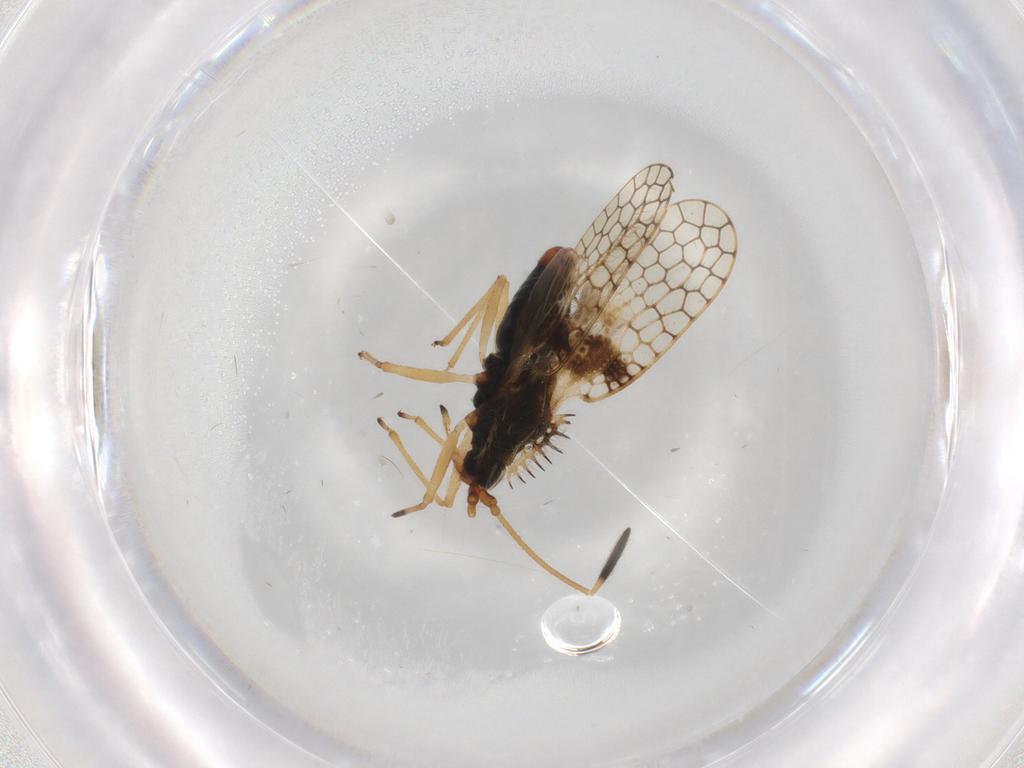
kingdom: Animalia
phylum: Arthropoda
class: Insecta
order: Hemiptera
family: Tingidae
